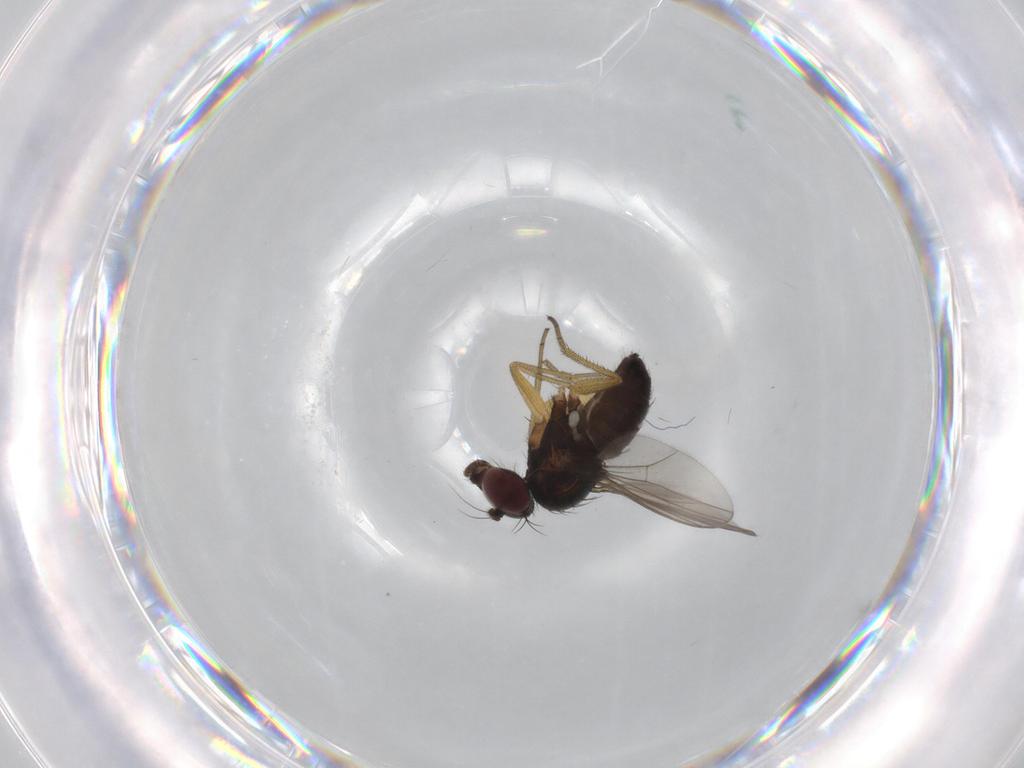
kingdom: Animalia
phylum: Arthropoda
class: Insecta
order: Diptera
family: Dolichopodidae
